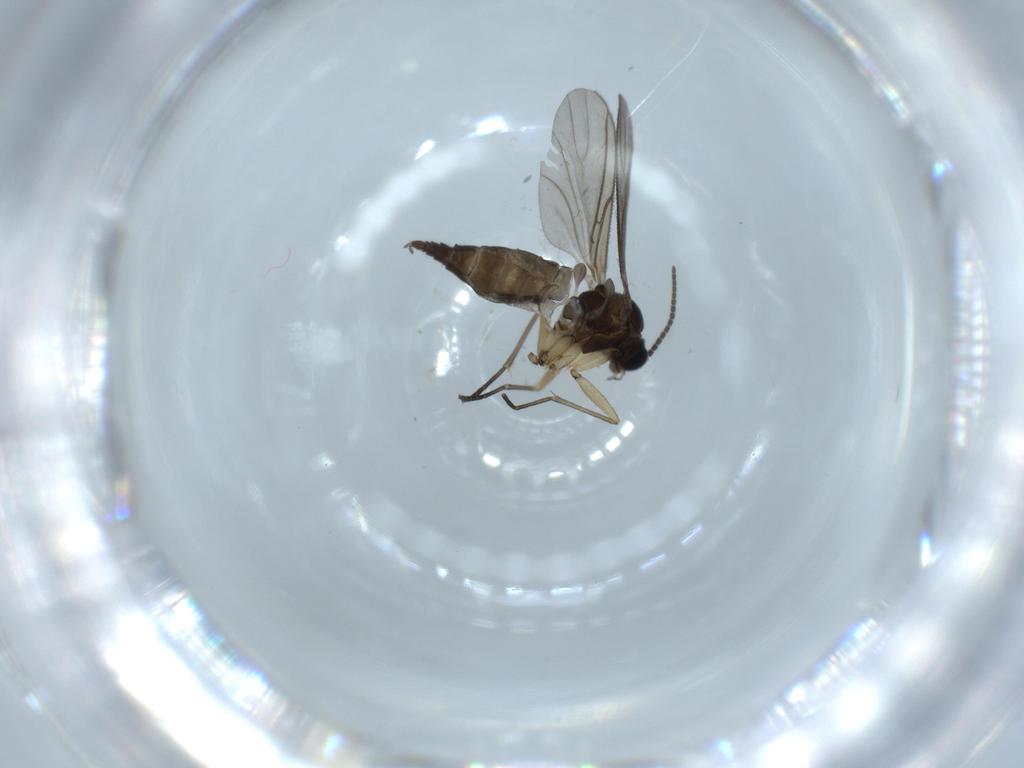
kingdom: Animalia
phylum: Arthropoda
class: Insecta
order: Diptera
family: Sciaridae
